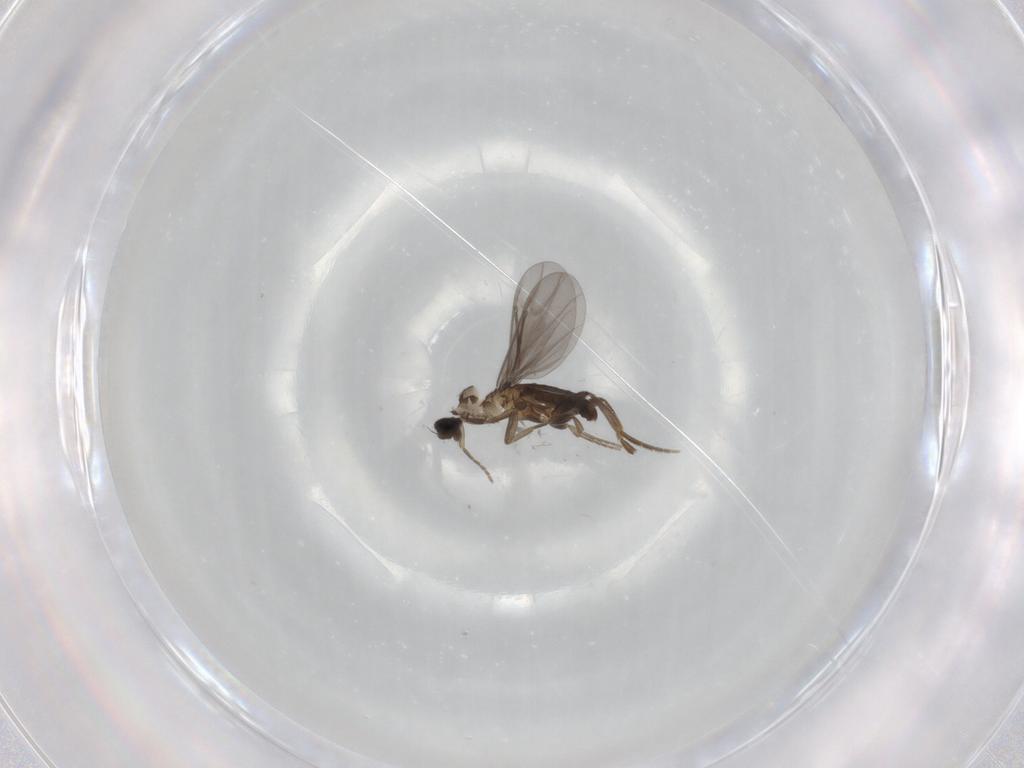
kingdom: Animalia
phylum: Arthropoda
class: Insecta
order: Diptera
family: Phoridae
